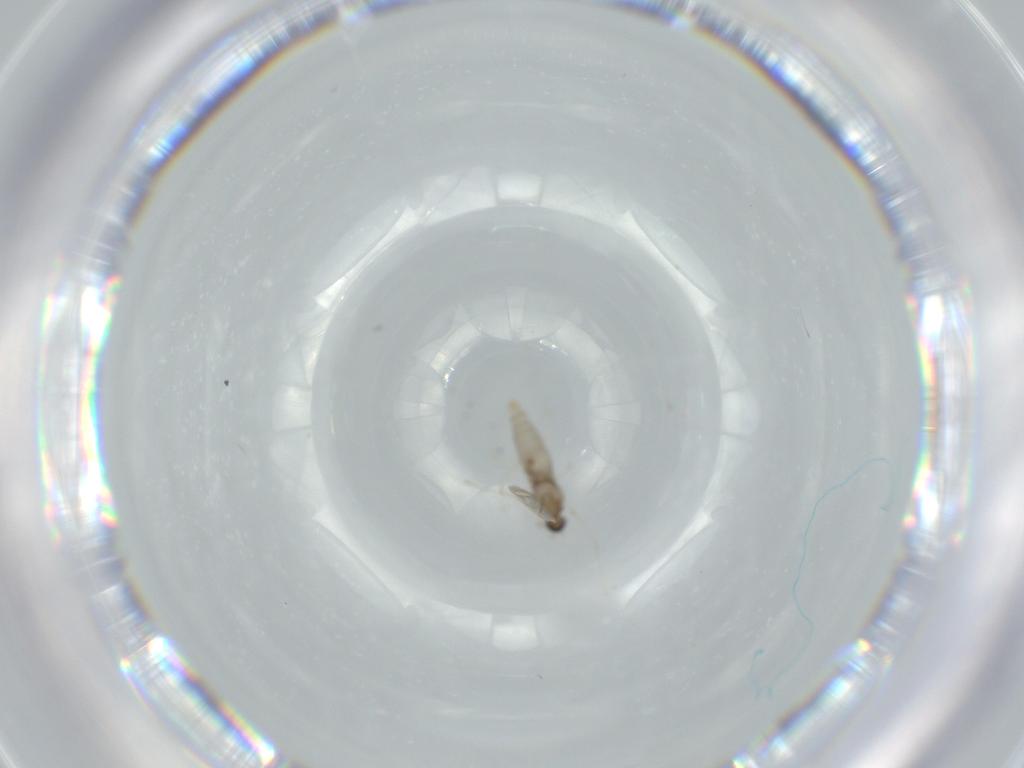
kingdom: Animalia
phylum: Arthropoda
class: Insecta
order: Diptera
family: Cecidomyiidae
